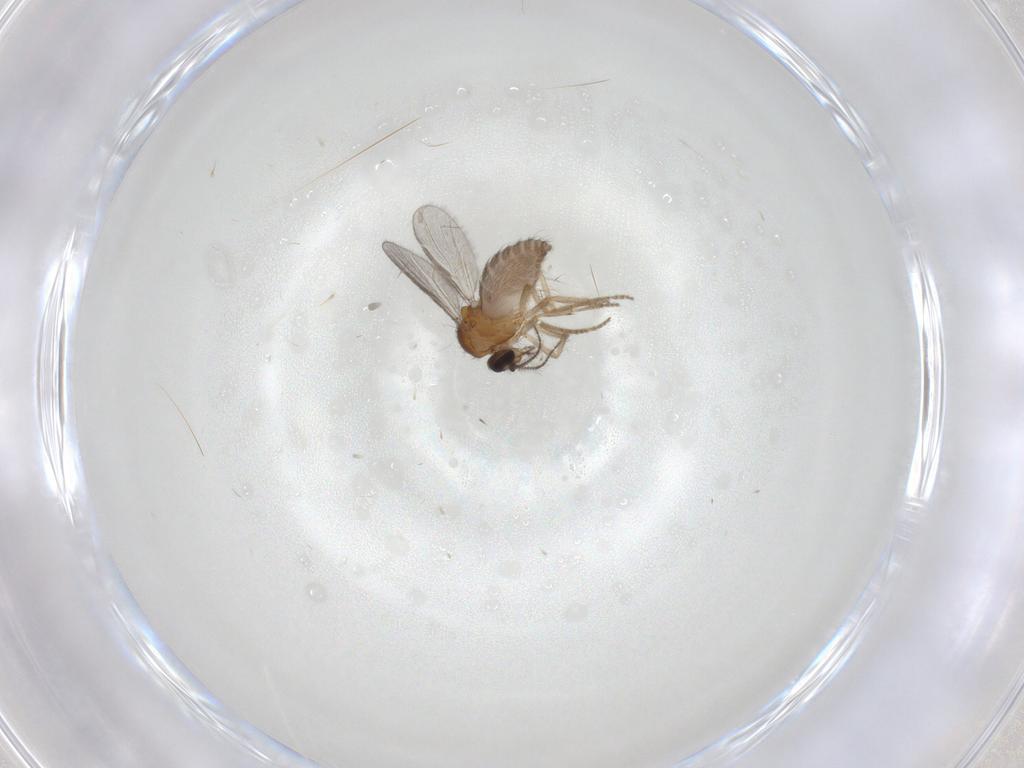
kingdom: Animalia
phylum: Arthropoda
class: Insecta
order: Diptera
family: Ceratopogonidae
